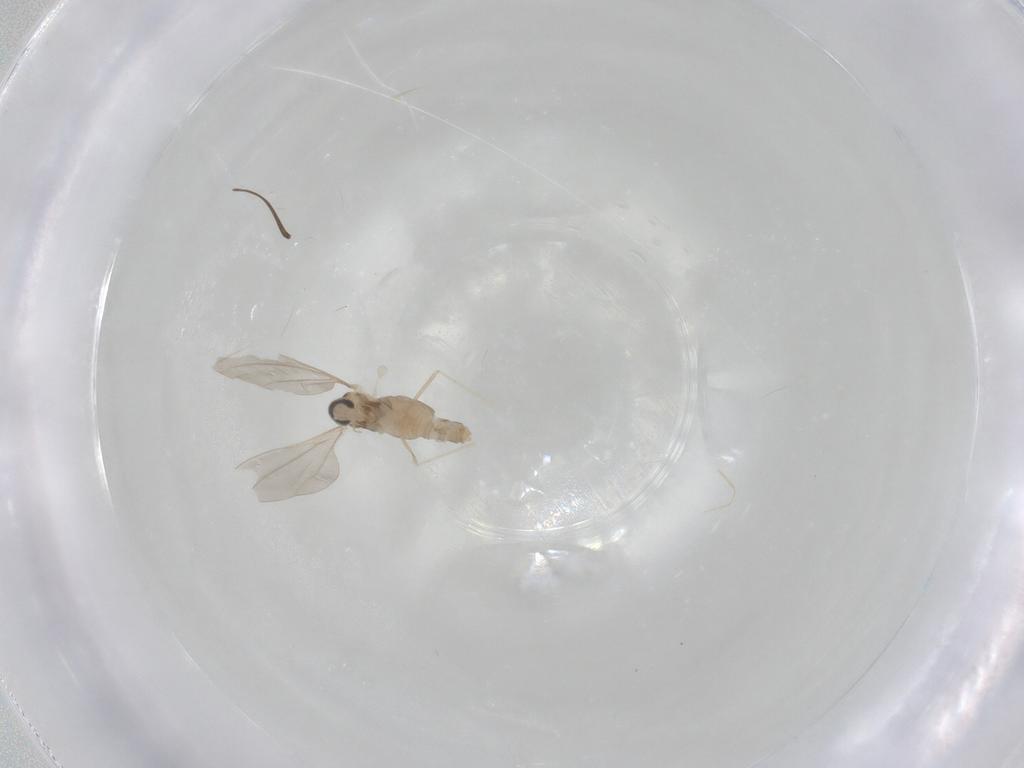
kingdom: Animalia
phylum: Arthropoda
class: Insecta
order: Diptera
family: Cecidomyiidae
